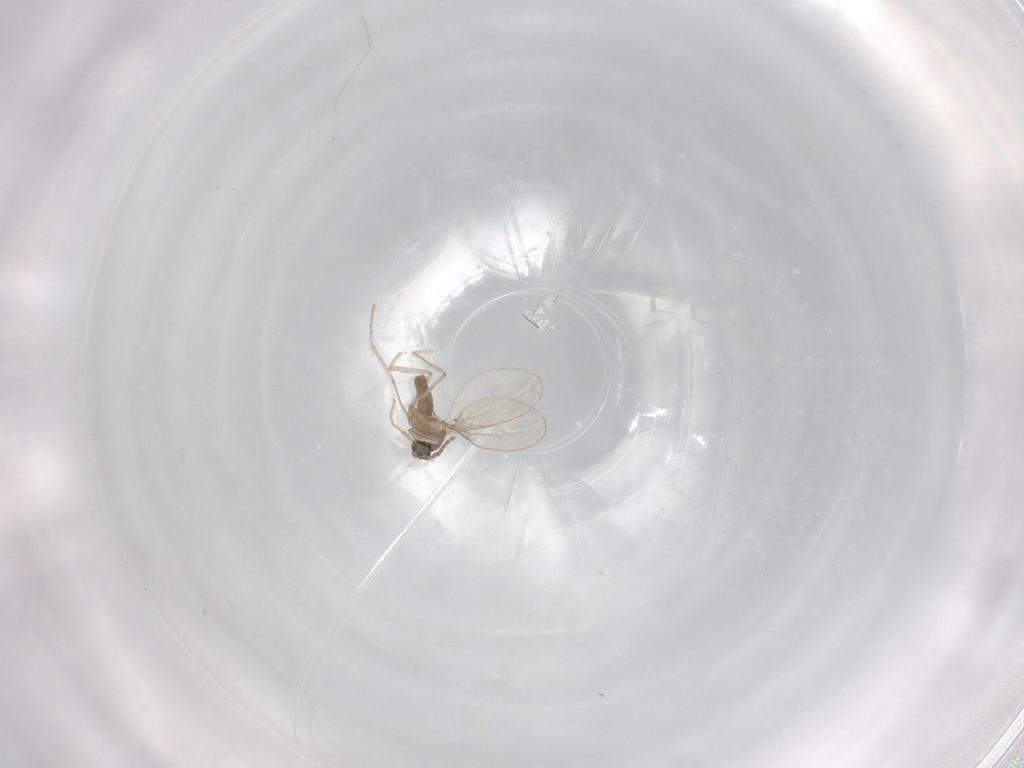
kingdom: Animalia
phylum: Arthropoda
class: Insecta
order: Diptera
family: Cecidomyiidae
